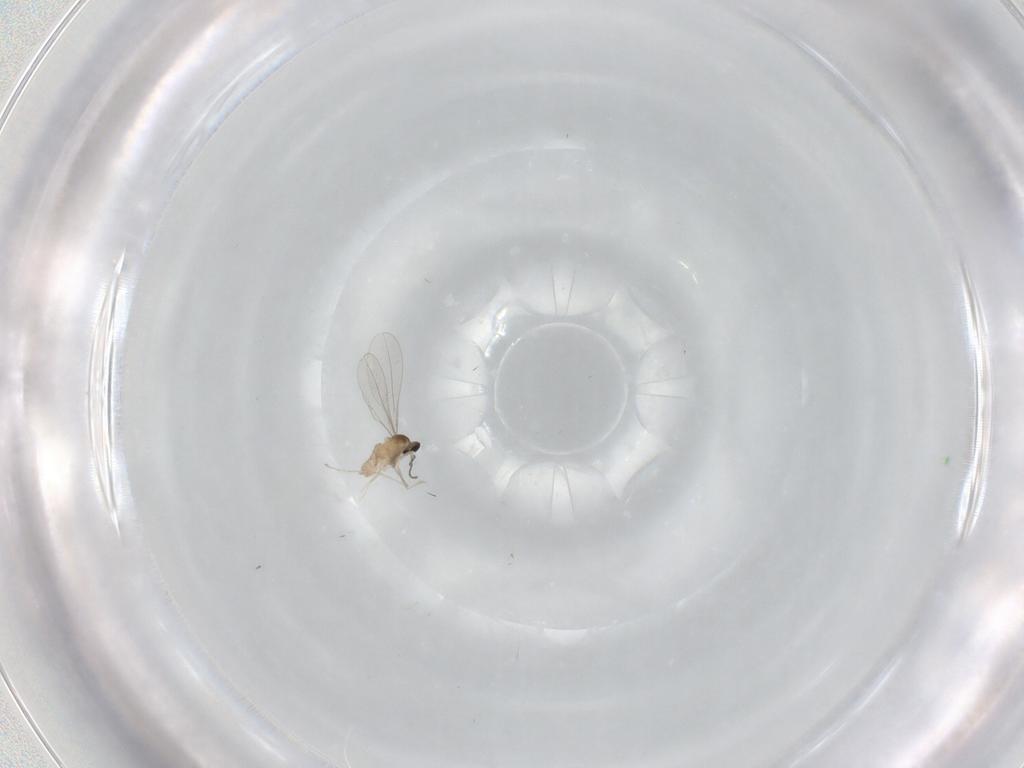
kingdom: Animalia
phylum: Arthropoda
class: Insecta
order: Diptera
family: Cecidomyiidae
